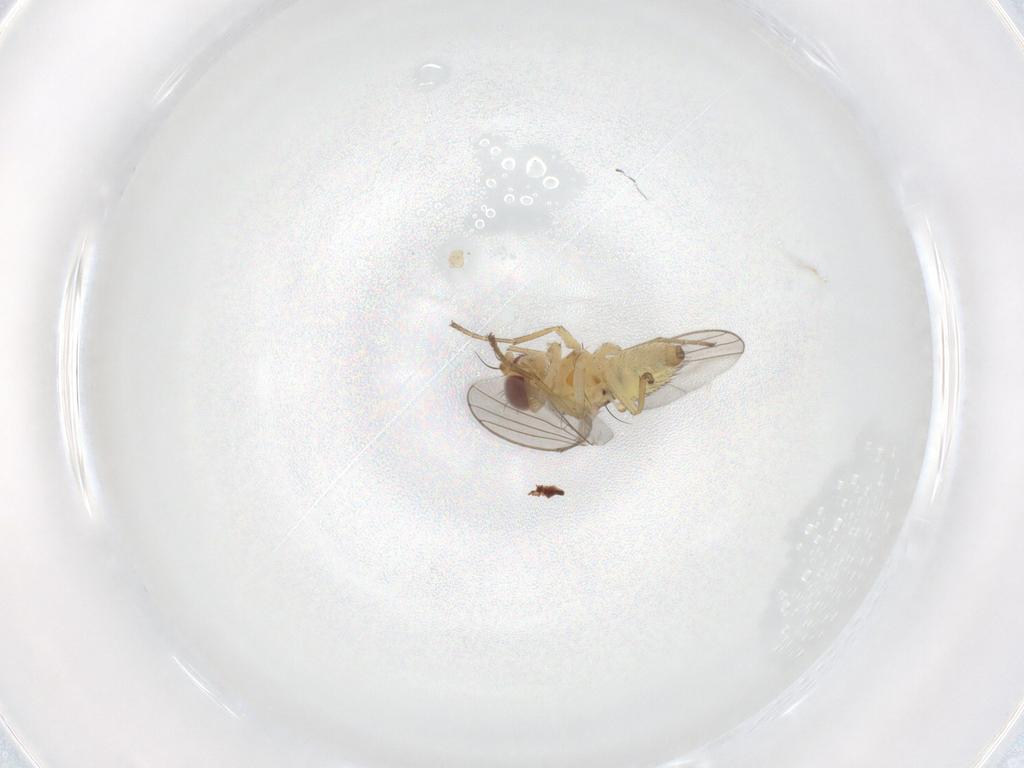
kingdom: Animalia
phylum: Arthropoda
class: Insecta
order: Diptera
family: Agromyzidae
